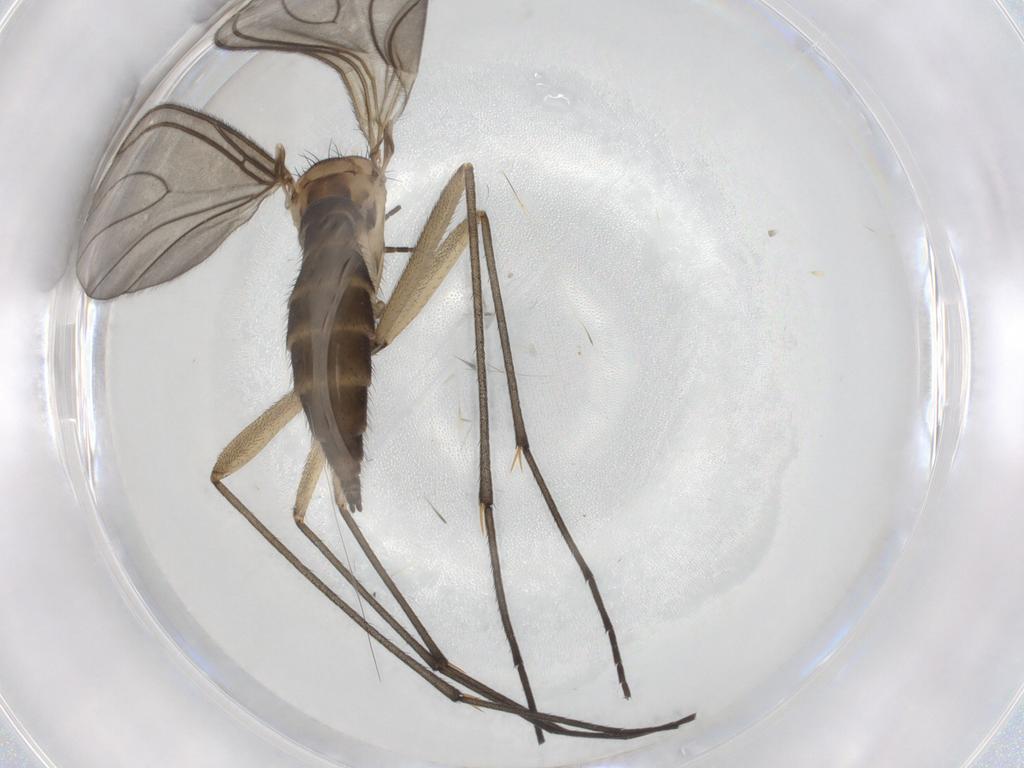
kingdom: Animalia
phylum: Arthropoda
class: Insecta
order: Diptera
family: Sciaridae
